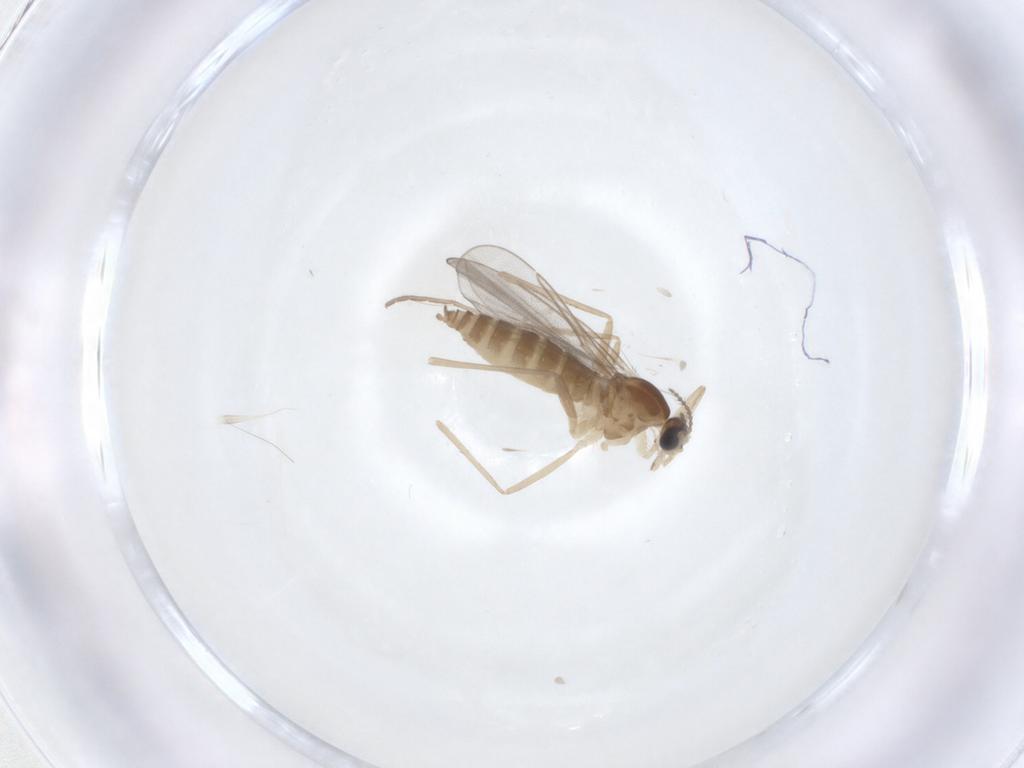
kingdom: Animalia
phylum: Arthropoda
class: Insecta
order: Diptera
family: Cecidomyiidae
